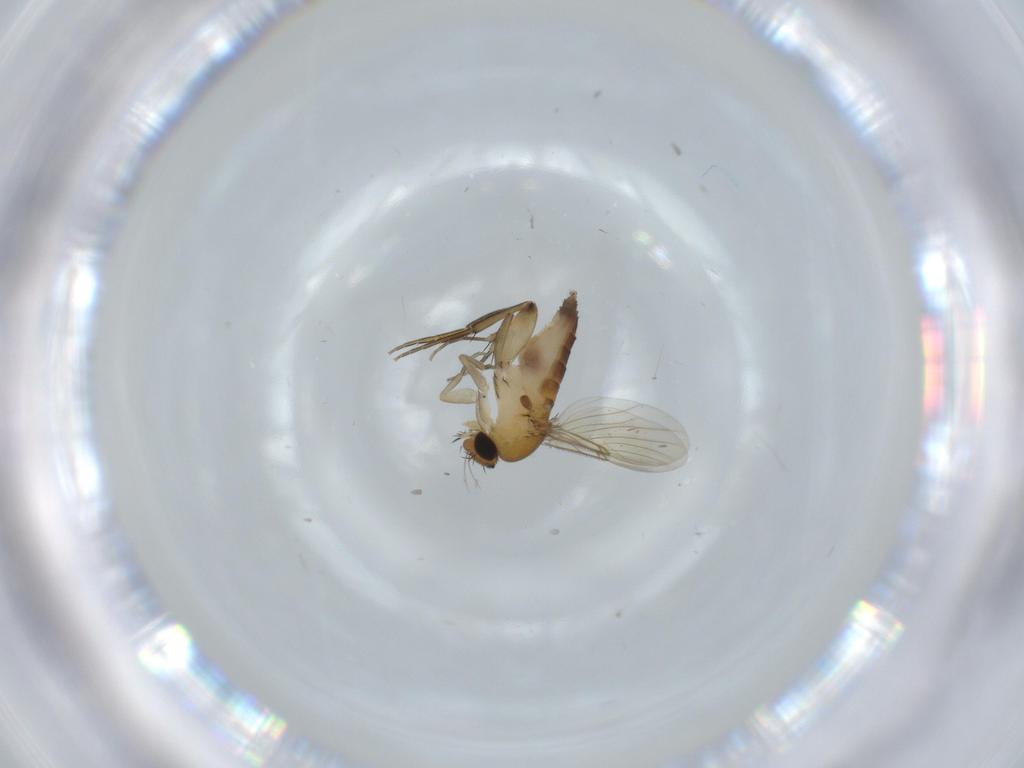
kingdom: Animalia
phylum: Arthropoda
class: Insecta
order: Diptera
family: Phoridae
